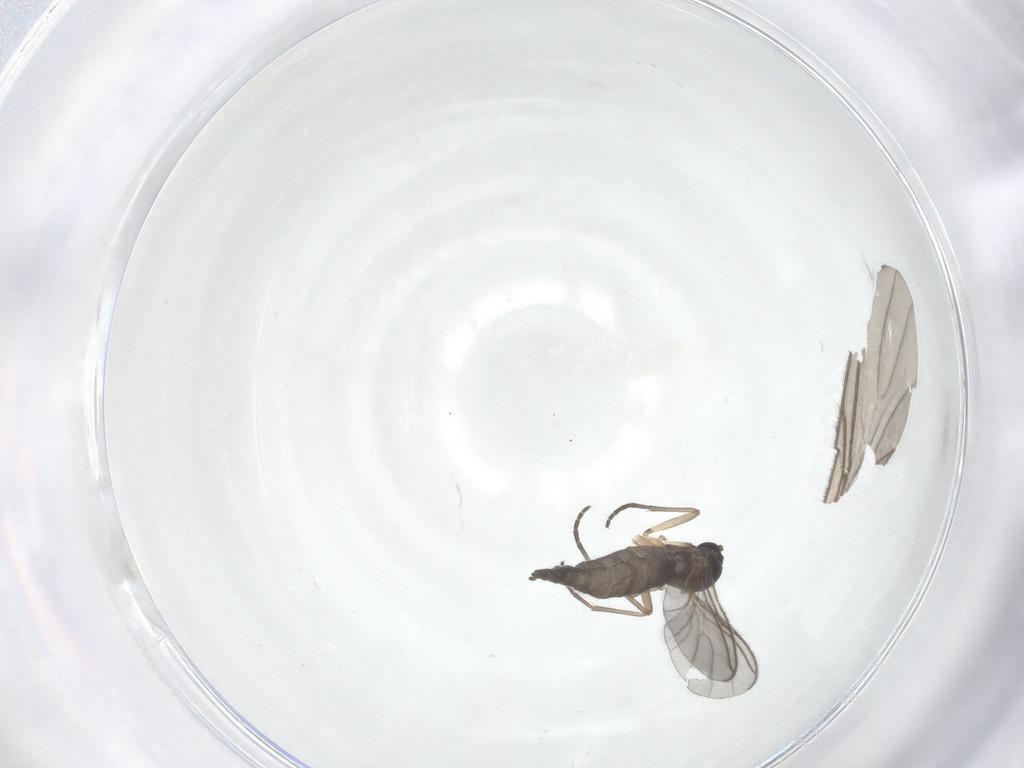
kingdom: Animalia
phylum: Arthropoda
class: Insecta
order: Diptera
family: Sciaridae
